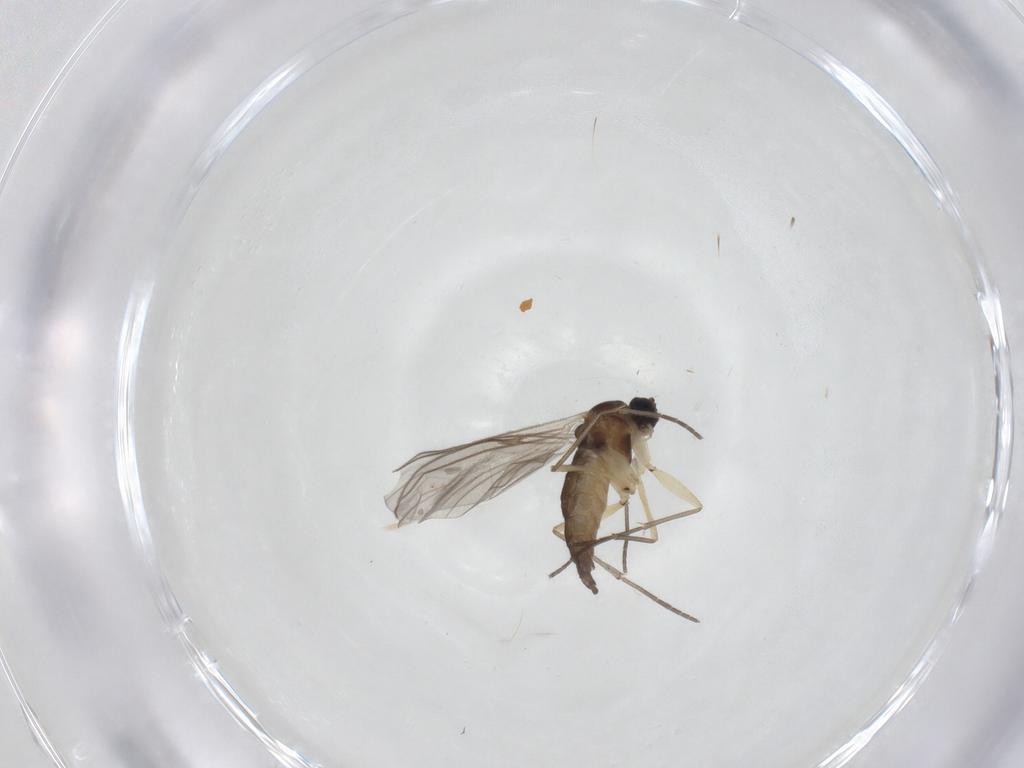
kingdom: Animalia
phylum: Arthropoda
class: Insecta
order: Diptera
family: Sciaridae
